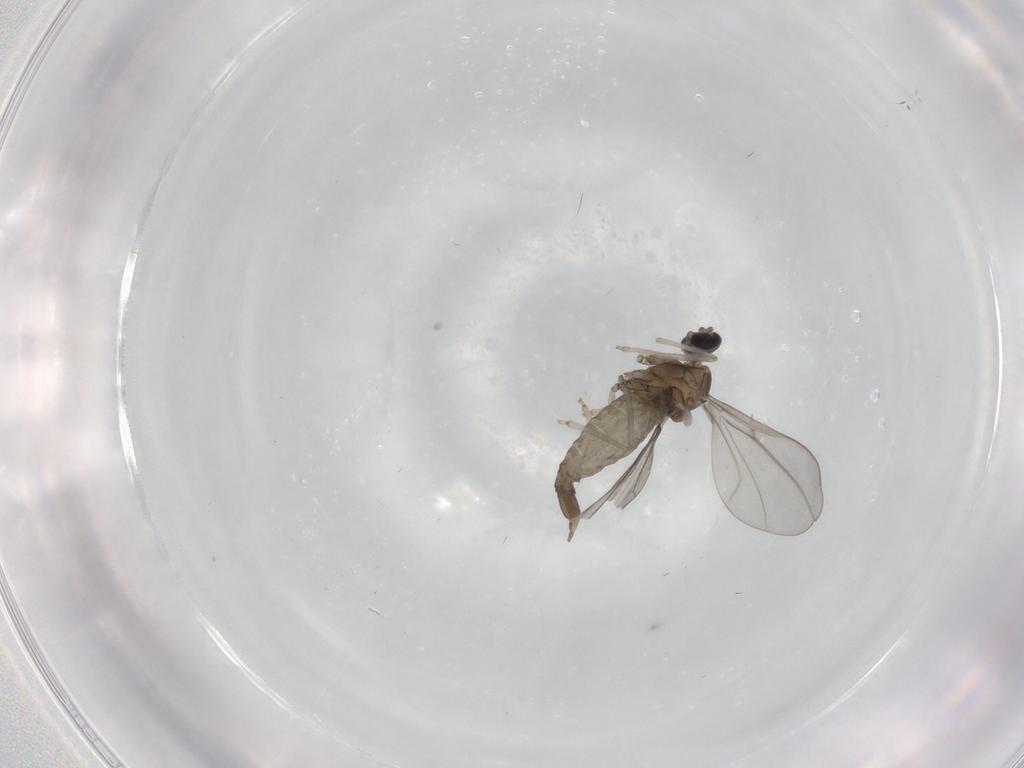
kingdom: Animalia
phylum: Arthropoda
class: Insecta
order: Diptera
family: Cecidomyiidae
